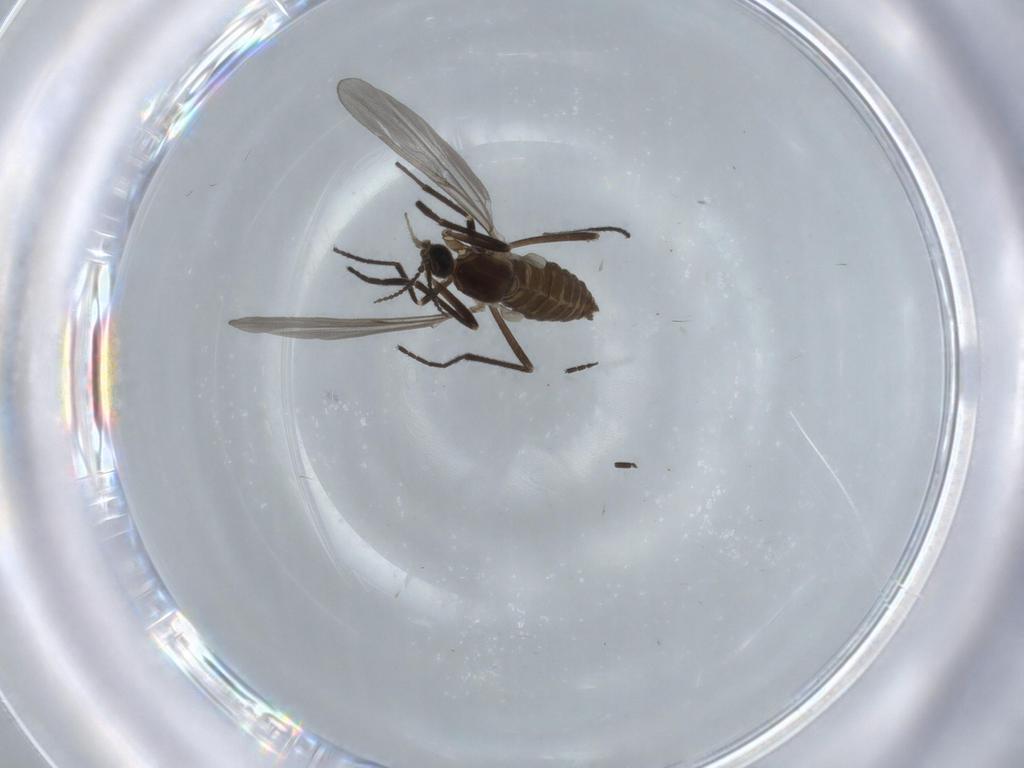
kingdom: Animalia
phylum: Arthropoda
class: Insecta
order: Diptera
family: Cecidomyiidae
